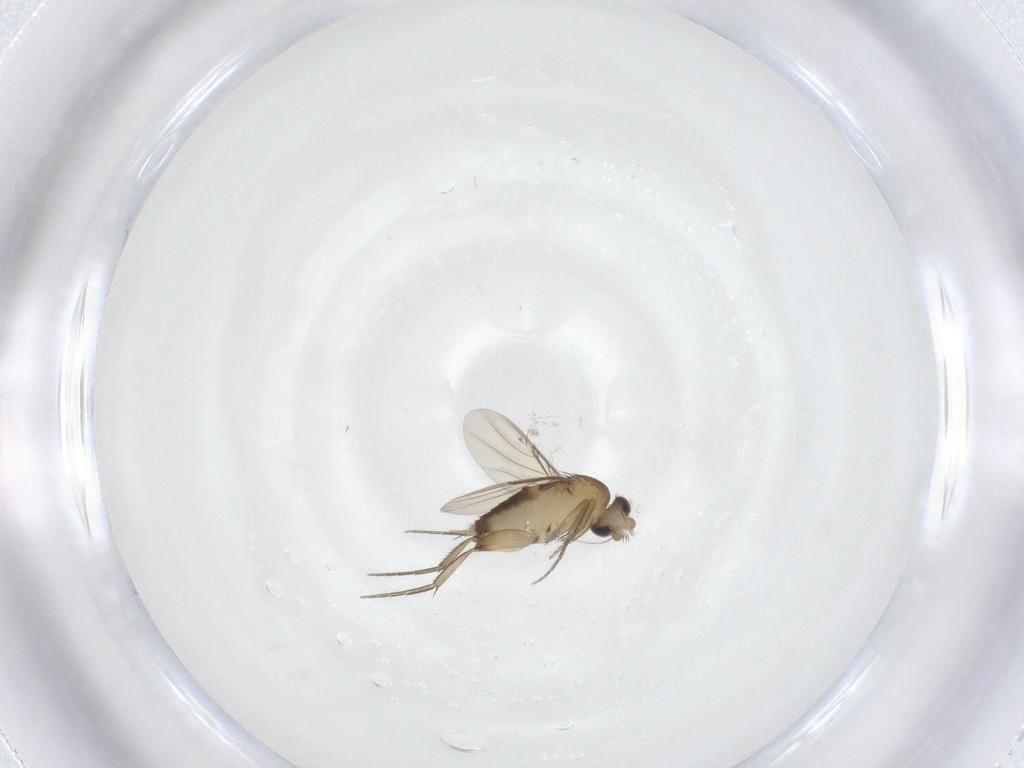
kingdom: Animalia
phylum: Arthropoda
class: Insecta
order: Diptera
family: Phoridae
